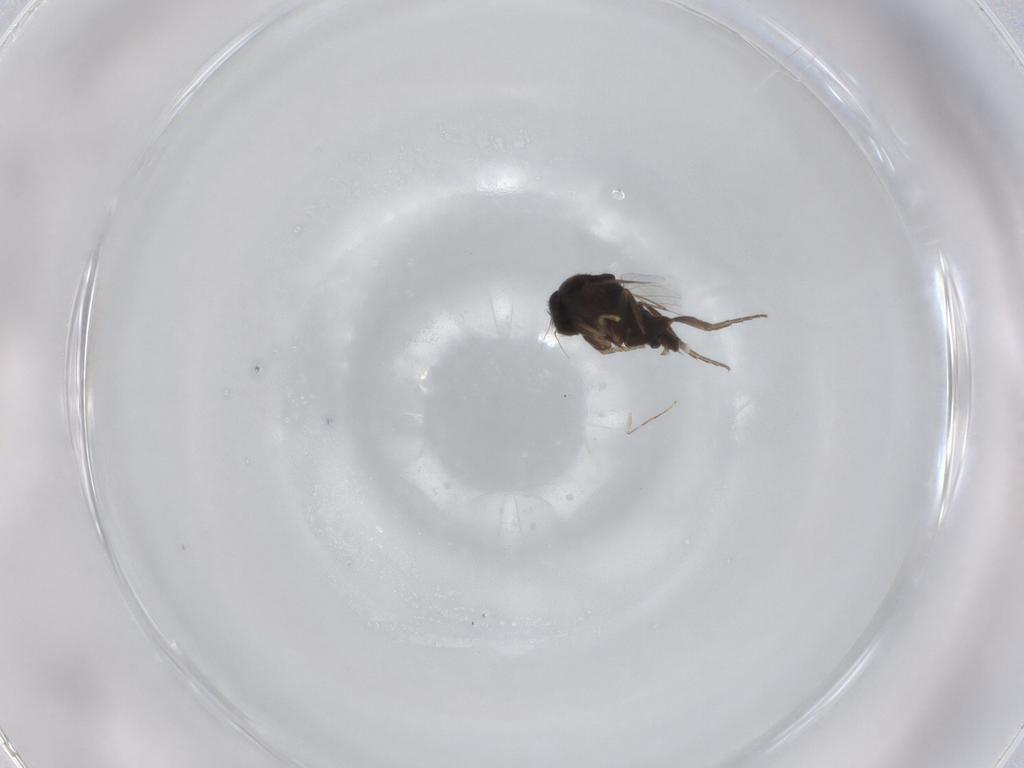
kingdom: Animalia
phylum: Arthropoda
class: Insecta
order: Diptera
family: Phoridae
